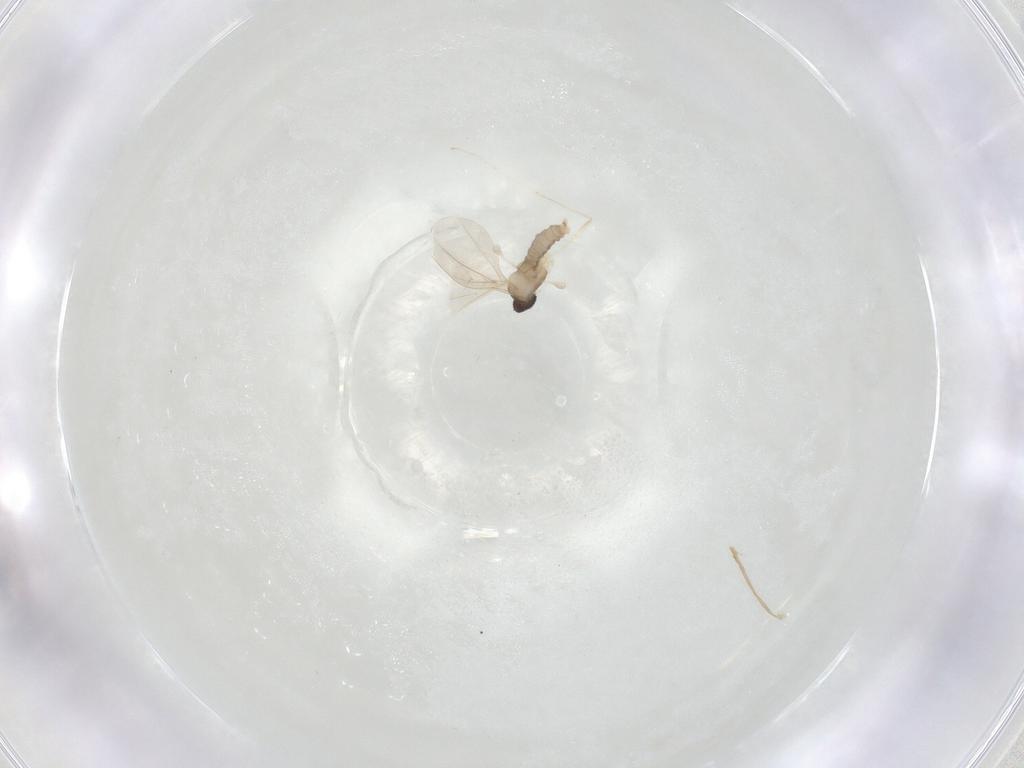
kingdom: Animalia
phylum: Arthropoda
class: Insecta
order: Diptera
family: Cecidomyiidae
